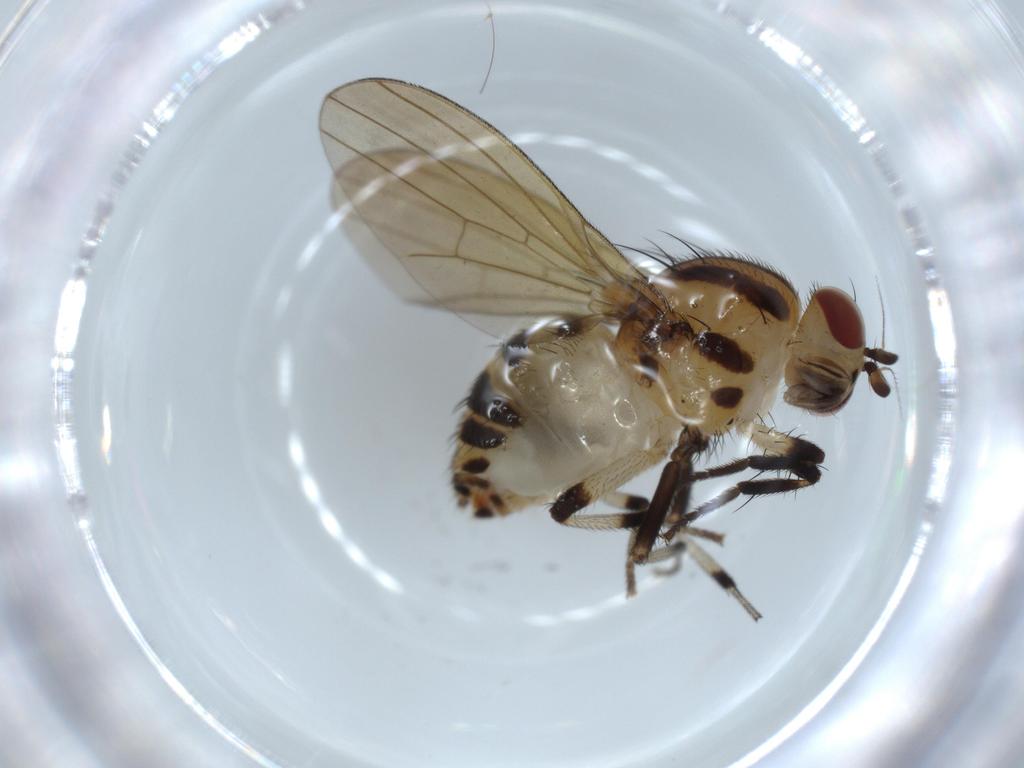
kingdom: Animalia
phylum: Arthropoda
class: Insecta
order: Diptera
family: Lauxaniidae
